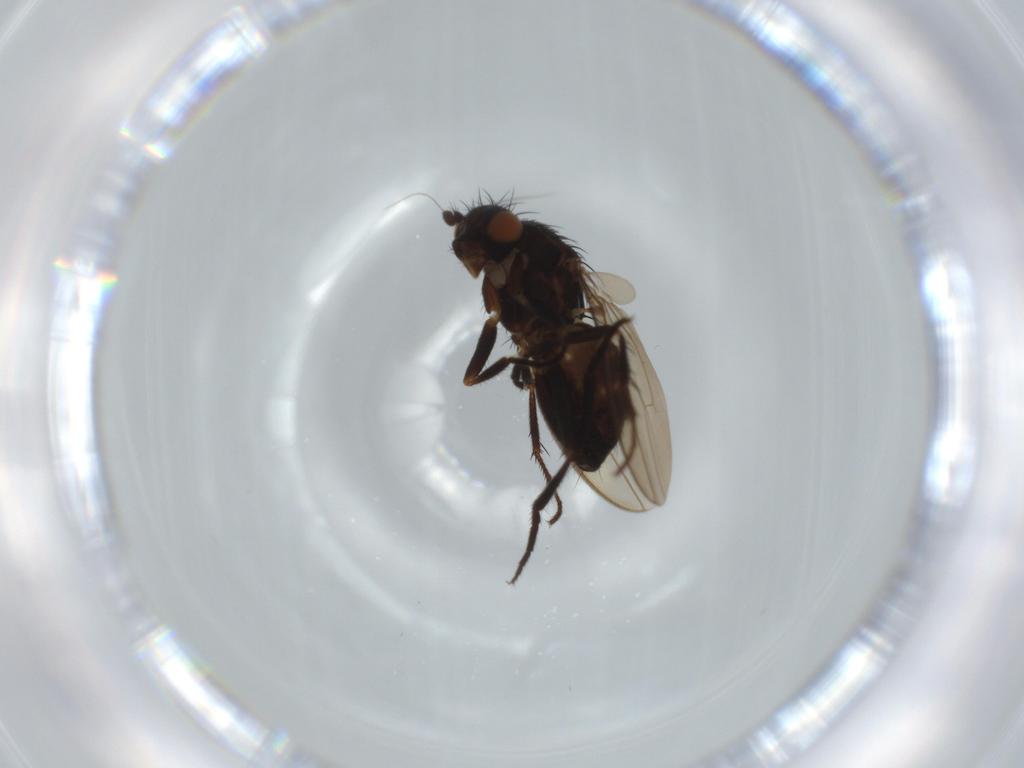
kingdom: Animalia
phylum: Arthropoda
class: Insecta
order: Diptera
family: Sphaeroceridae
